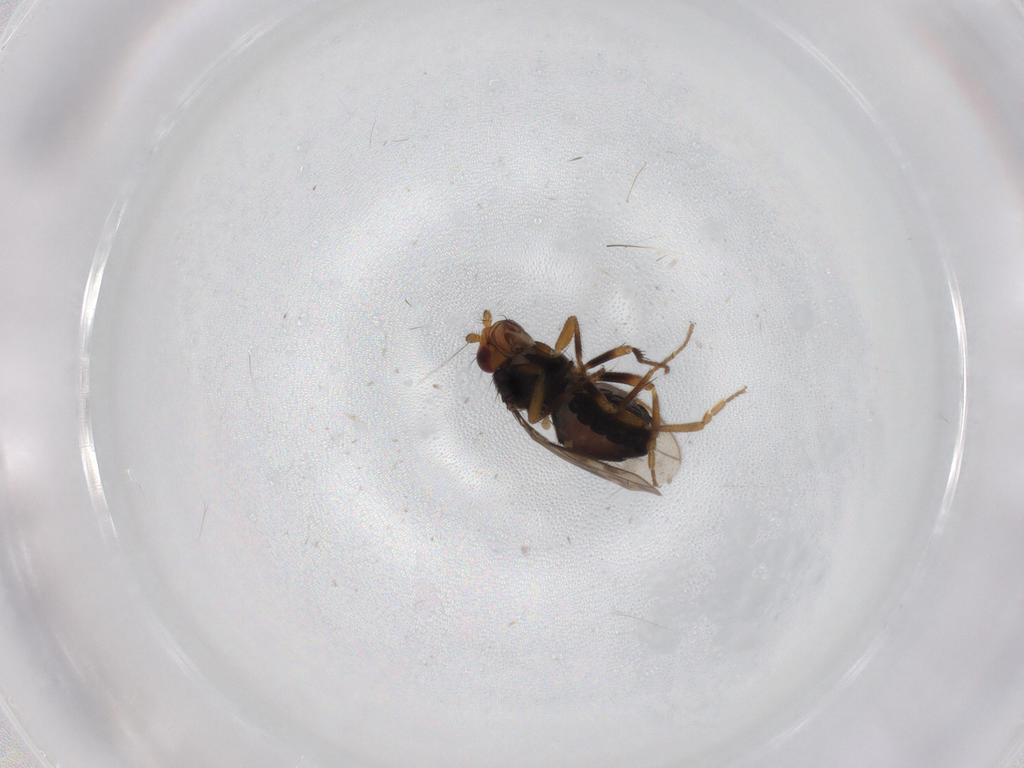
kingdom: Animalia
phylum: Arthropoda
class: Insecta
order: Diptera
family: Sphaeroceridae
